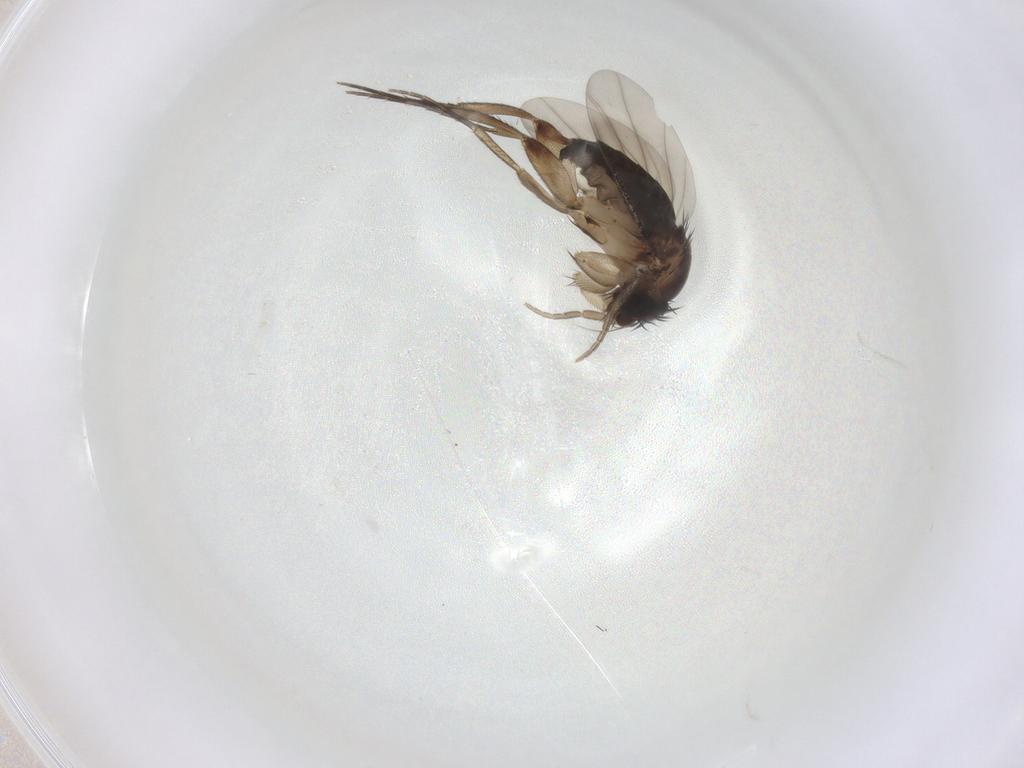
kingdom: Animalia
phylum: Arthropoda
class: Insecta
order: Diptera
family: Phoridae
